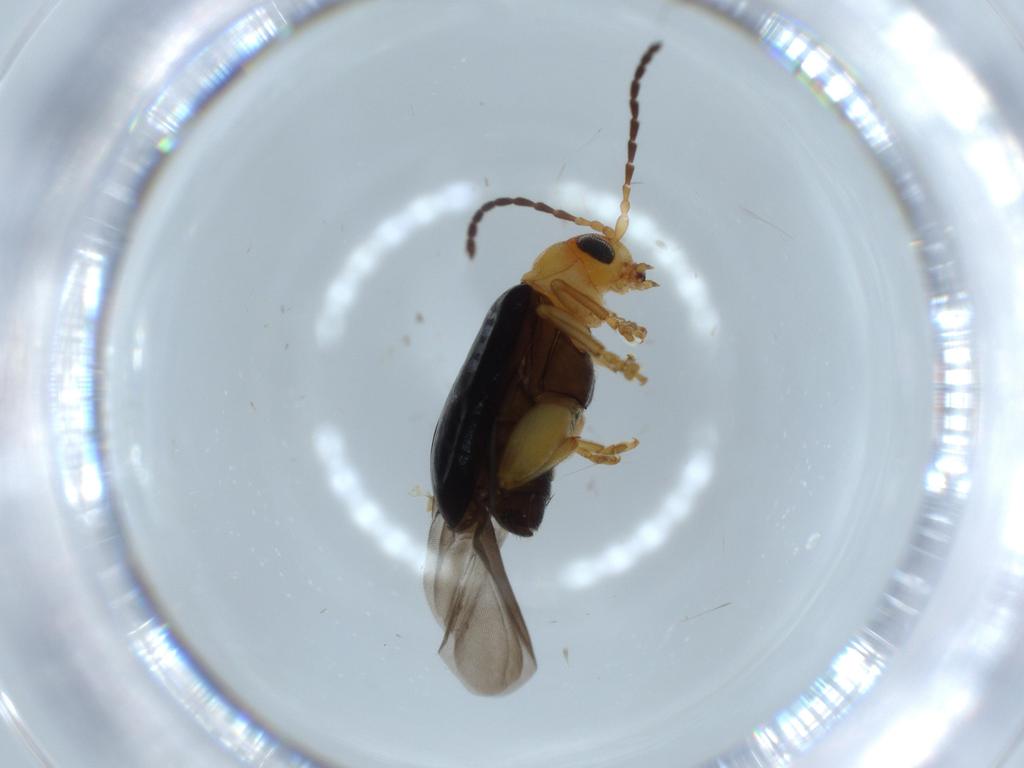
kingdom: Animalia
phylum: Arthropoda
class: Insecta
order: Coleoptera
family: Chrysomelidae
